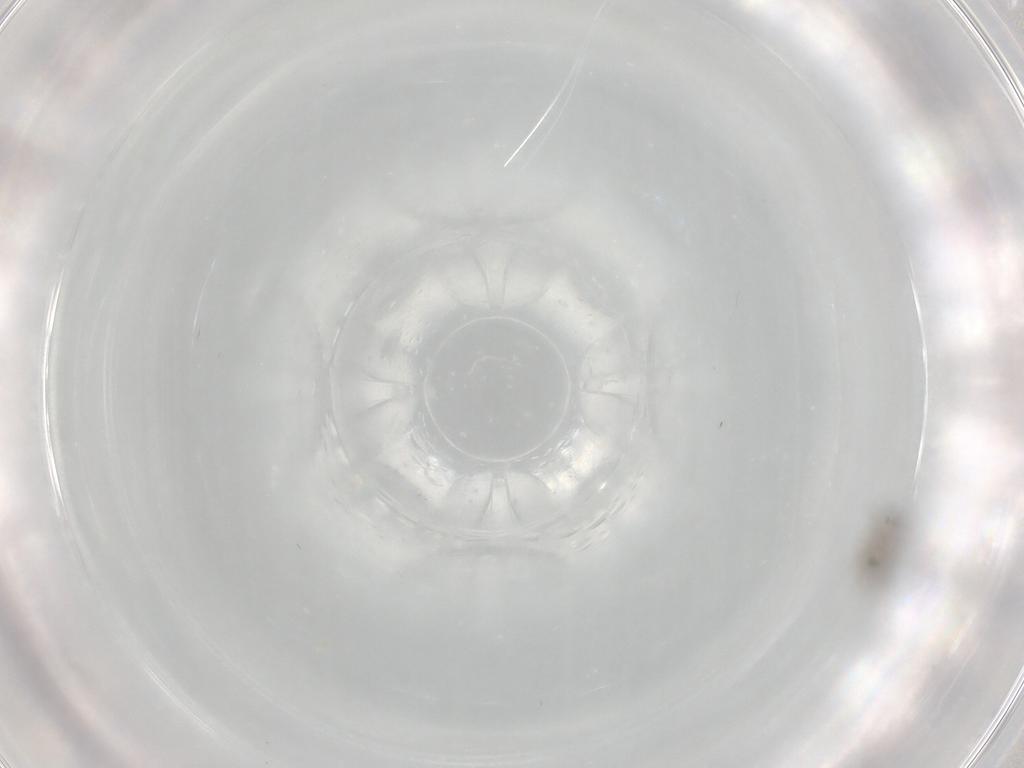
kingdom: Animalia
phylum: Arthropoda
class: Insecta
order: Diptera
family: Cecidomyiidae
